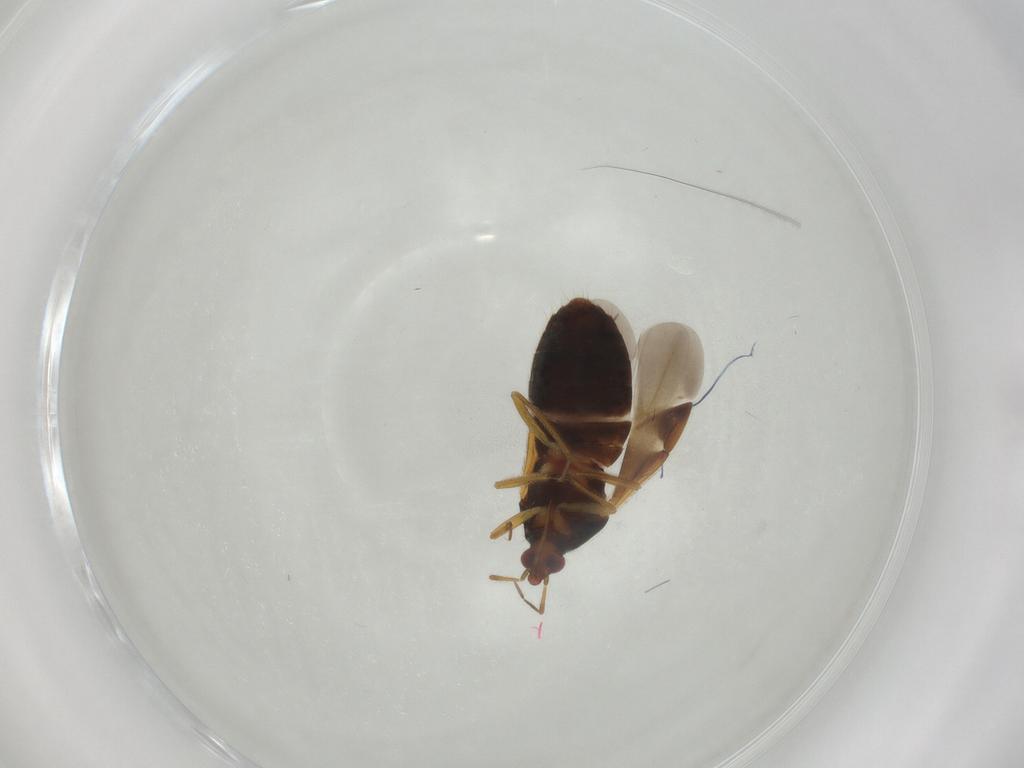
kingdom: Animalia
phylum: Arthropoda
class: Insecta
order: Hemiptera
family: Anthocoridae
